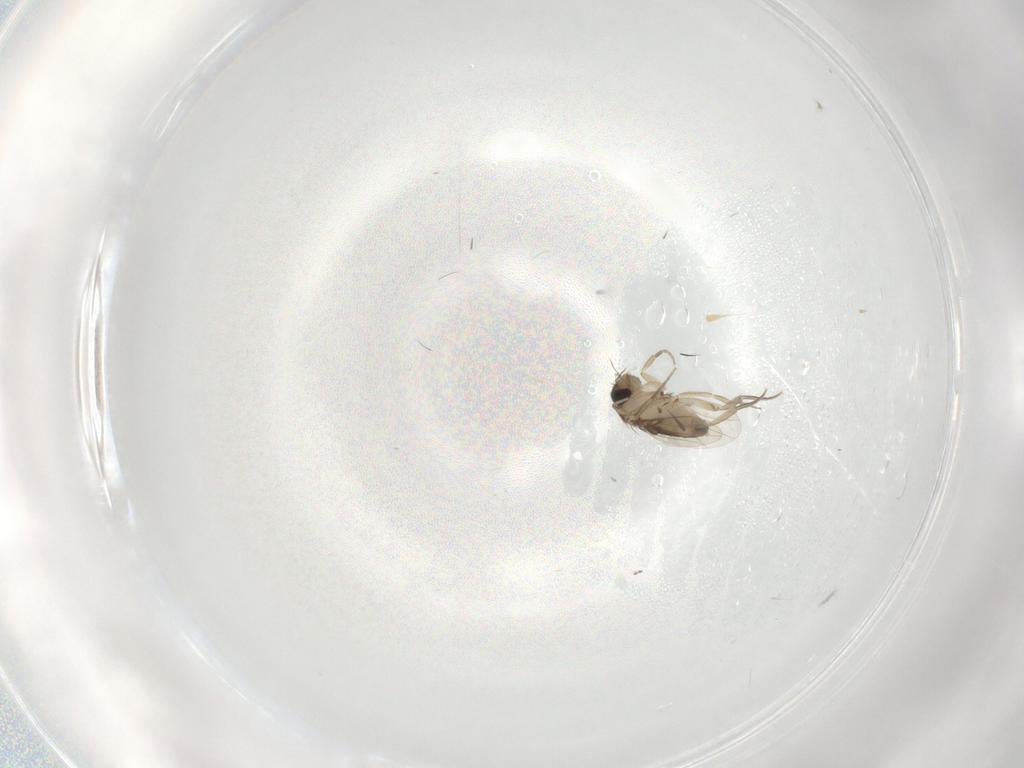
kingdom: Animalia
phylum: Arthropoda
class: Insecta
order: Diptera
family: Phoridae
